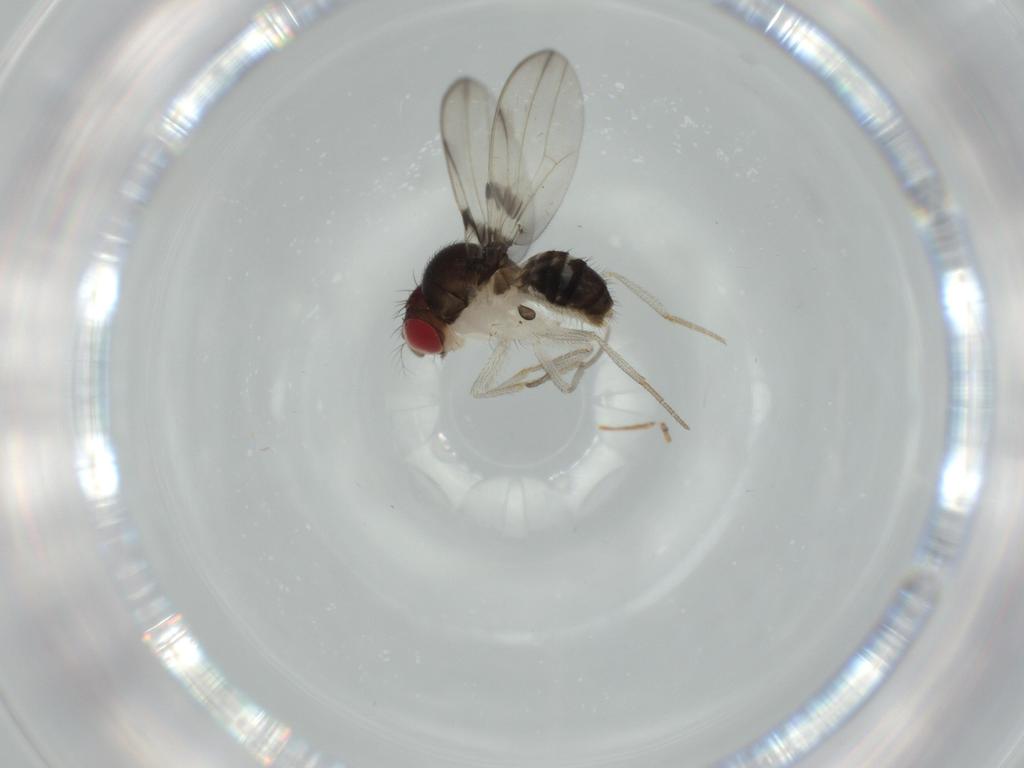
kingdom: Animalia
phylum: Arthropoda
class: Insecta
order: Diptera
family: Drosophilidae
